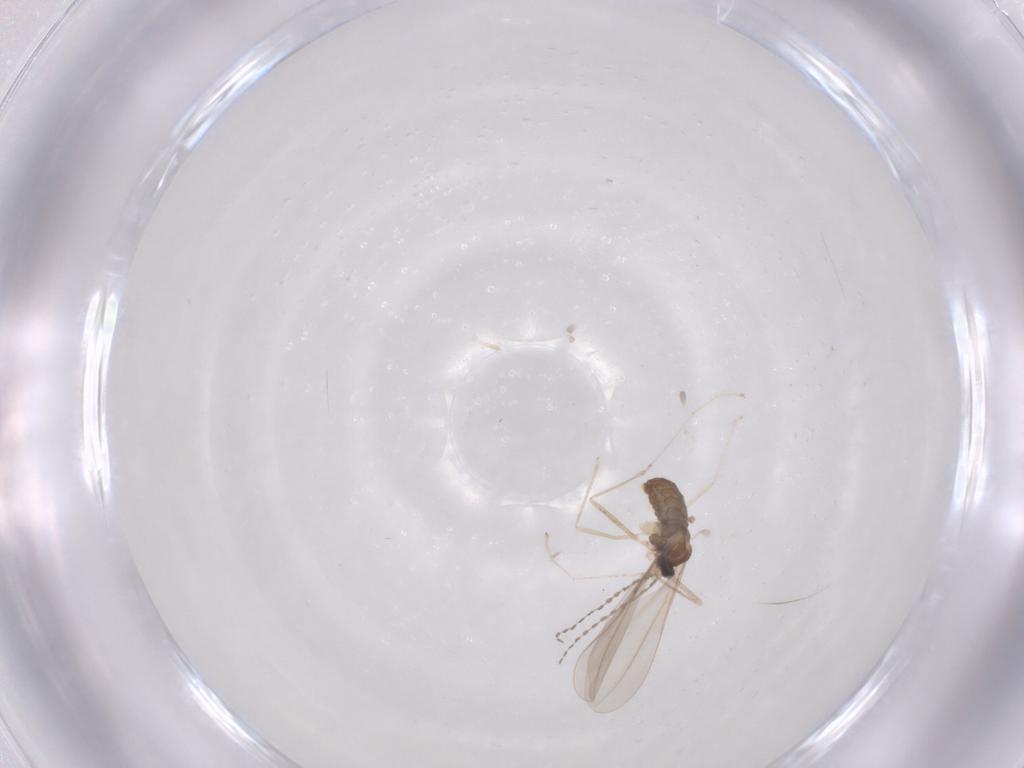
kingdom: Animalia
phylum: Arthropoda
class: Insecta
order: Diptera
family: Cecidomyiidae
